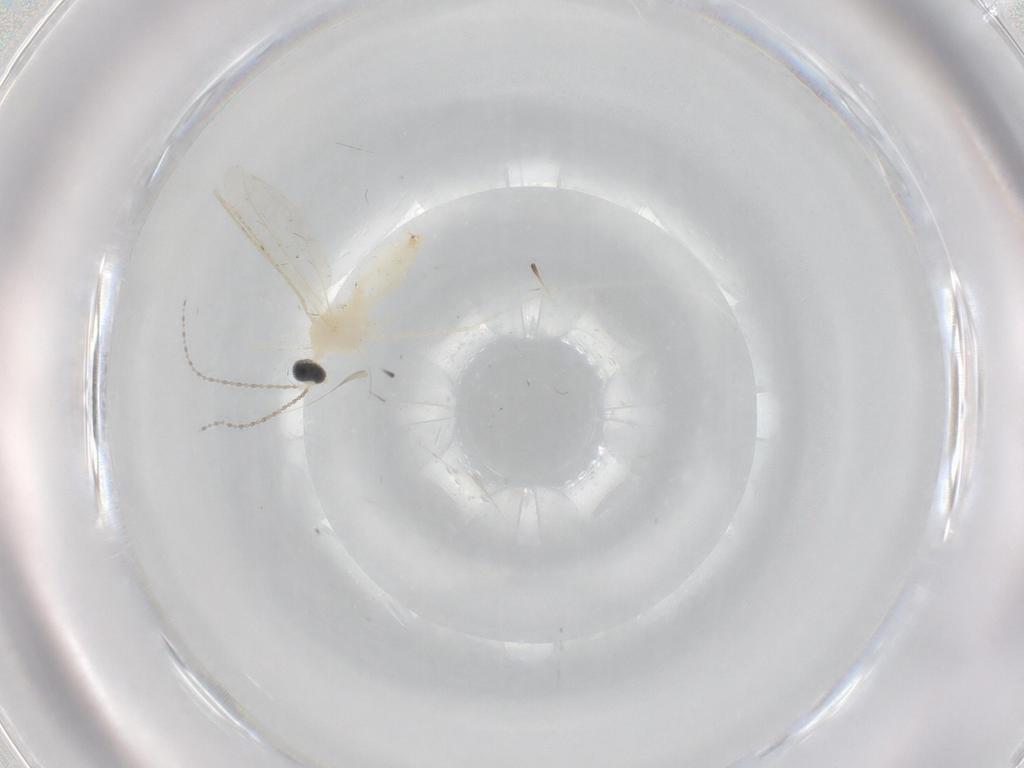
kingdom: Animalia
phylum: Arthropoda
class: Insecta
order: Diptera
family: Cecidomyiidae
